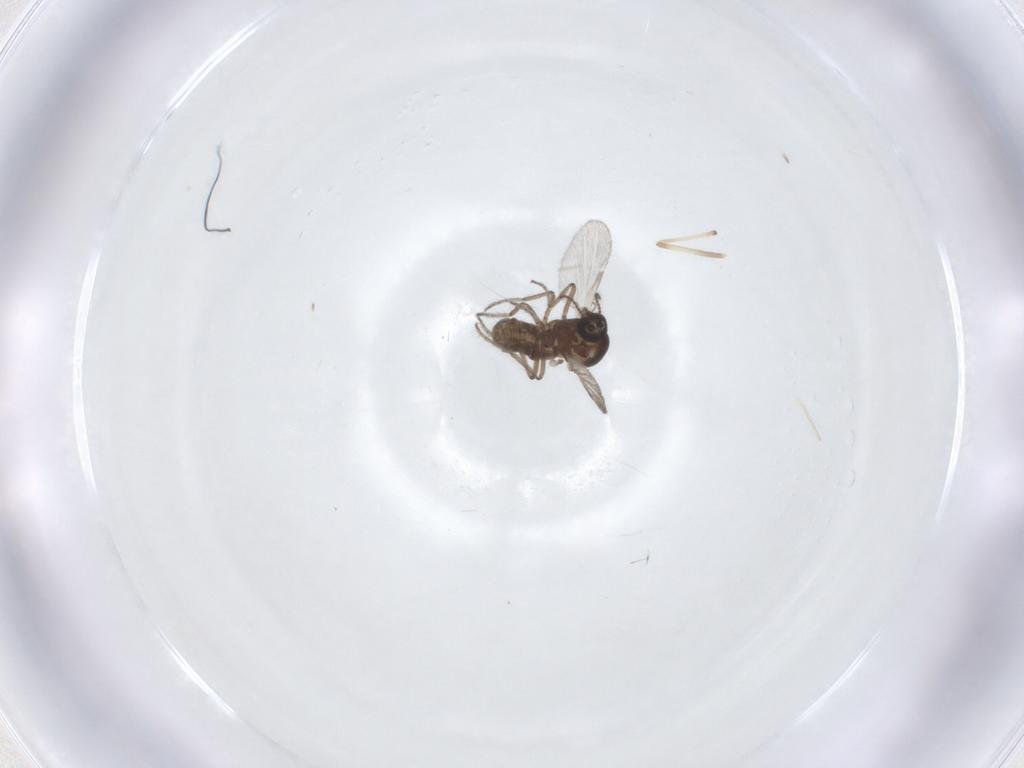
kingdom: Animalia
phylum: Arthropoda
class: Insecta
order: Diptera
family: Ceratopogonidae
